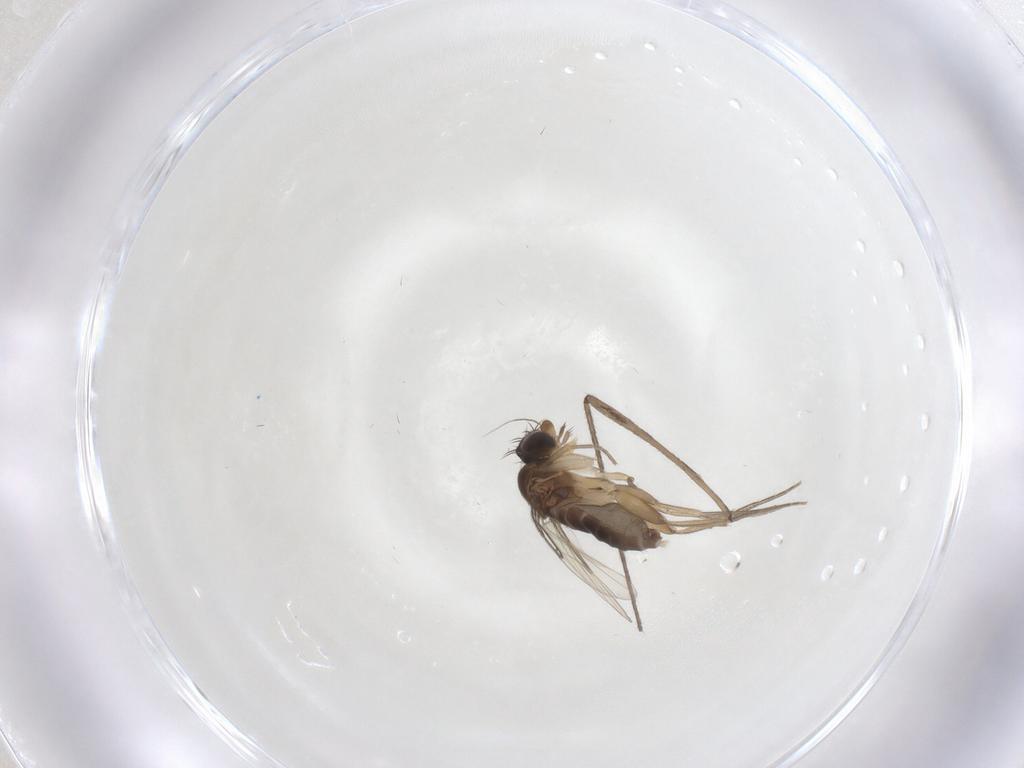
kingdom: Animalia
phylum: Arthropoda
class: Insecta
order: Diptera
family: Phoridae
